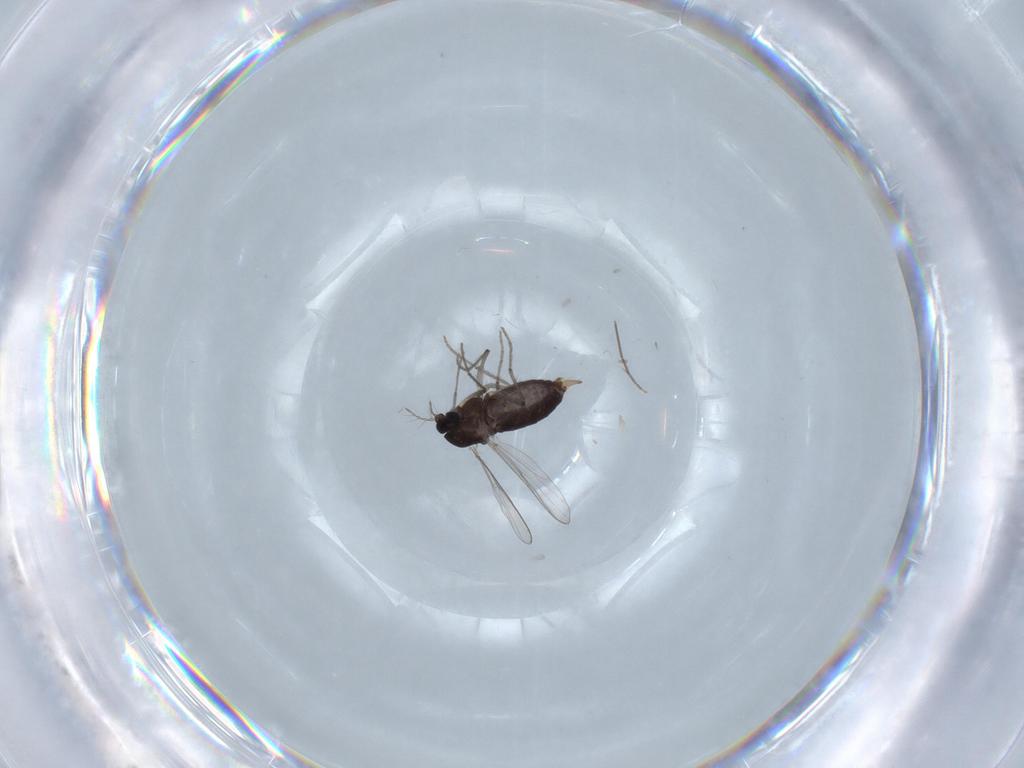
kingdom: Animalia
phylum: Arthropoda
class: Insecta
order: Diptera
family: Chironomidae
